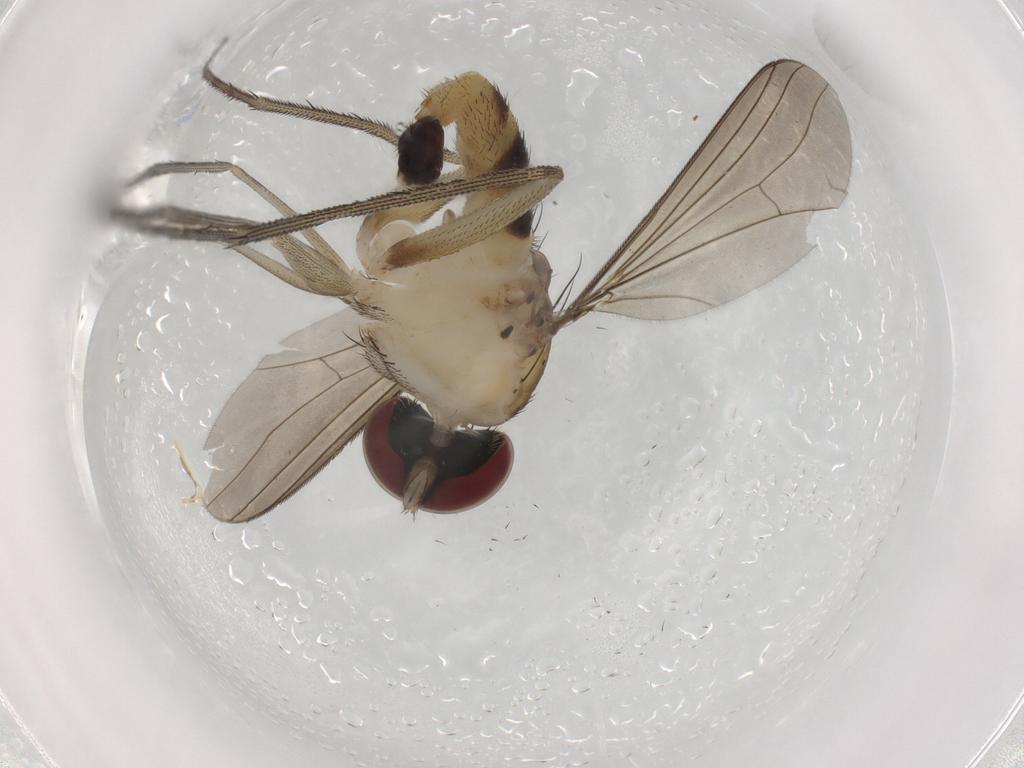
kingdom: Animalia
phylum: Arthropoda
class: Insecta
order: Diptera
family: Dolichopodidae
